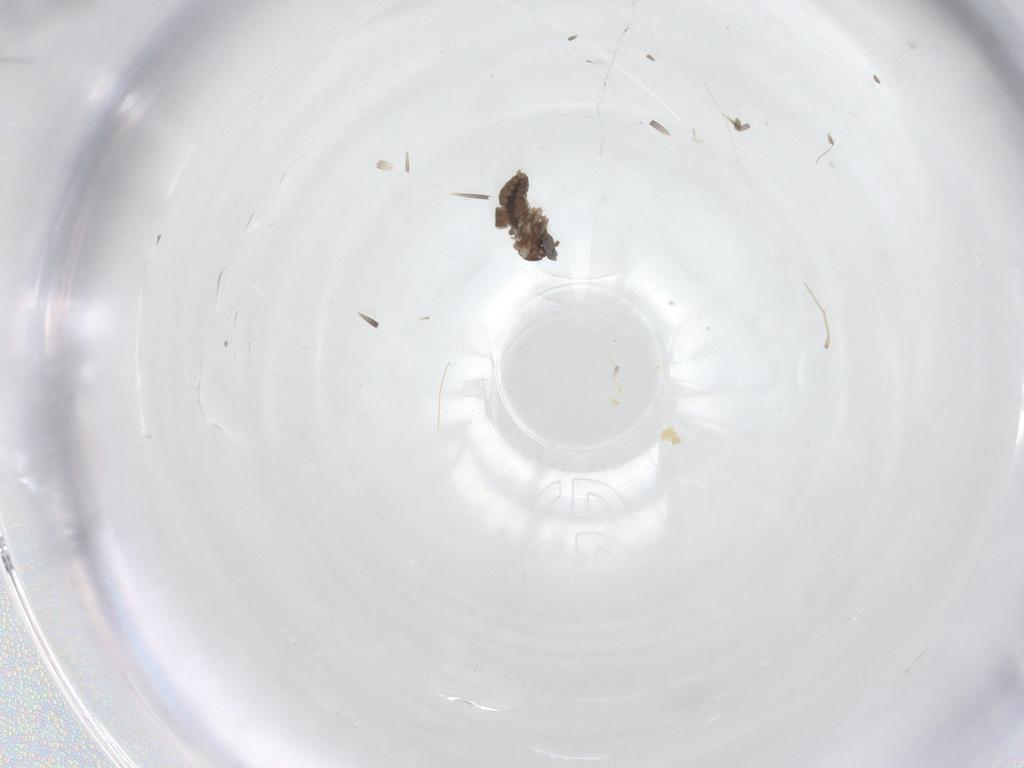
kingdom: Animalia
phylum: Arthropoda
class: Insecta
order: Diptera
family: Cecidomyiidae
